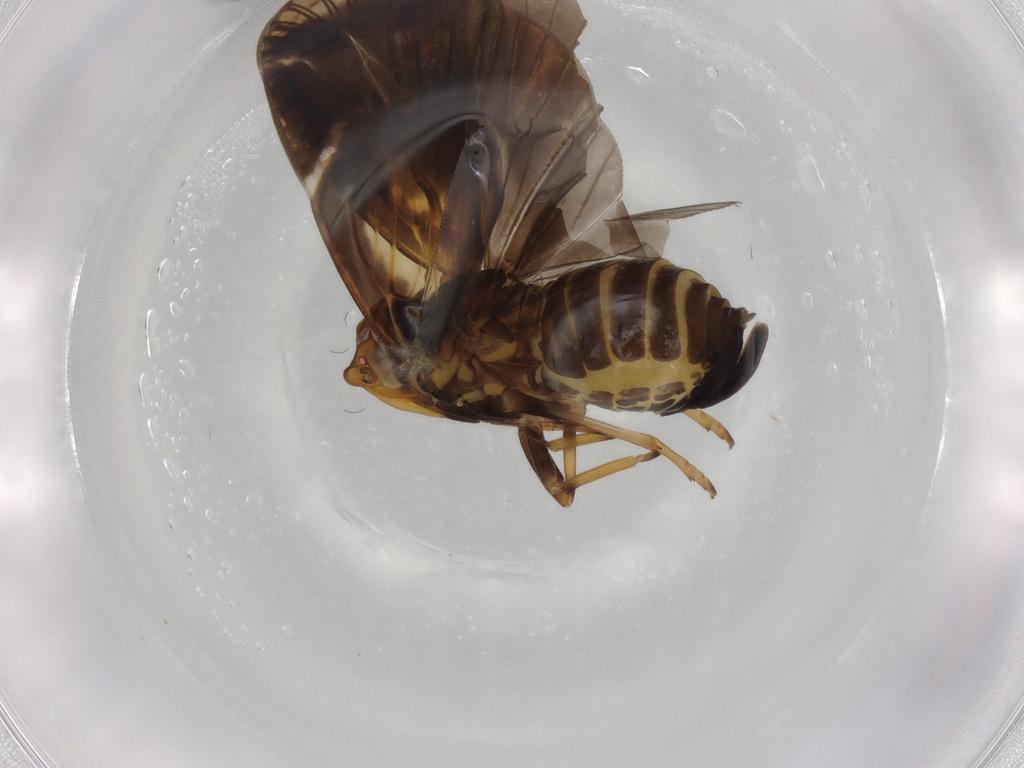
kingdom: Animalia
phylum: Arthropoda
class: Insecta
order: Hemiptera
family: Cixiidae
